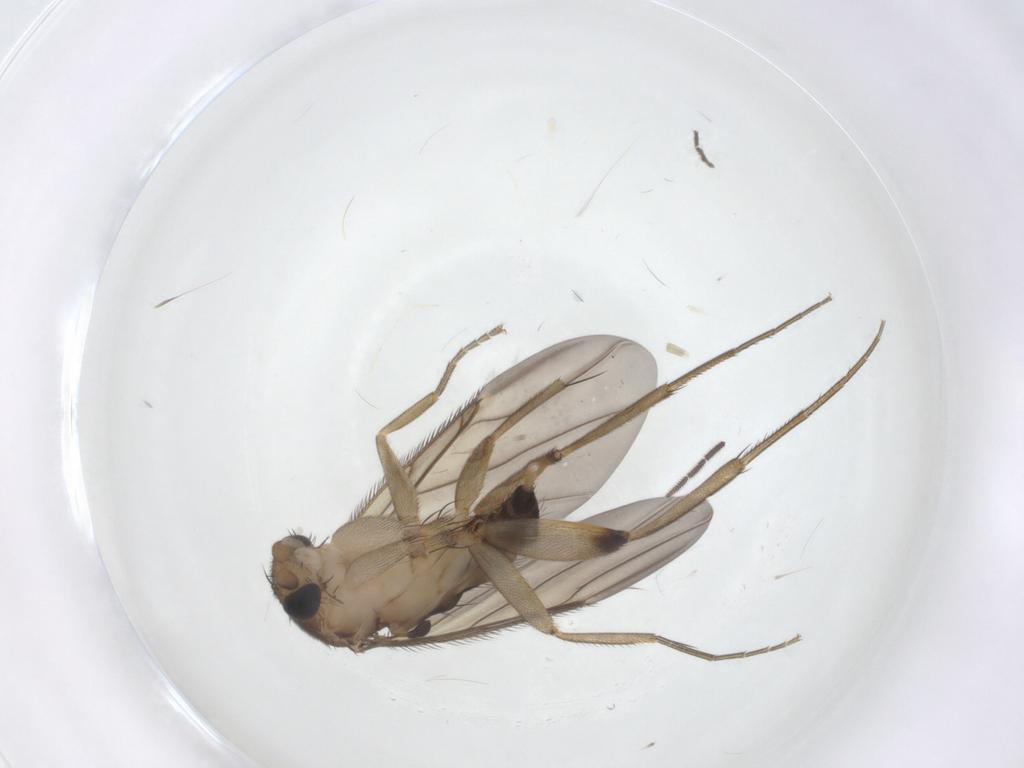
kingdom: Animalia
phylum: Arthropoda
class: Insecta
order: Diptera
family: Phoridae
